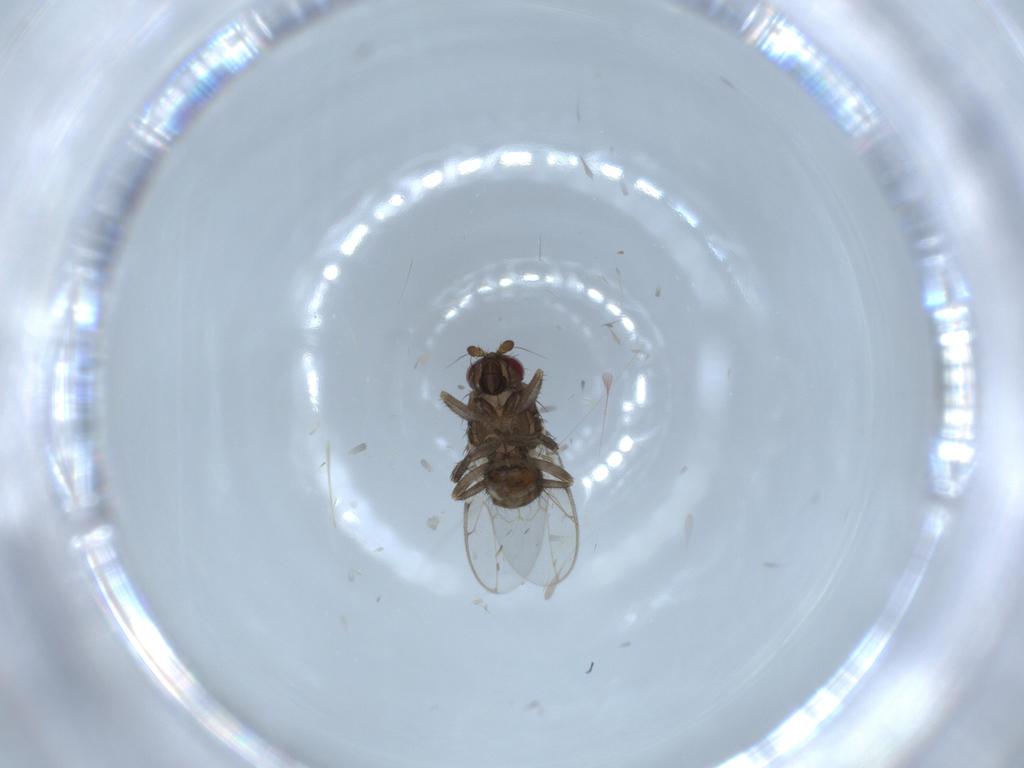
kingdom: Animalia
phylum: Arthropoda
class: Insecta
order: Diptera
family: Sphaeroceridae
